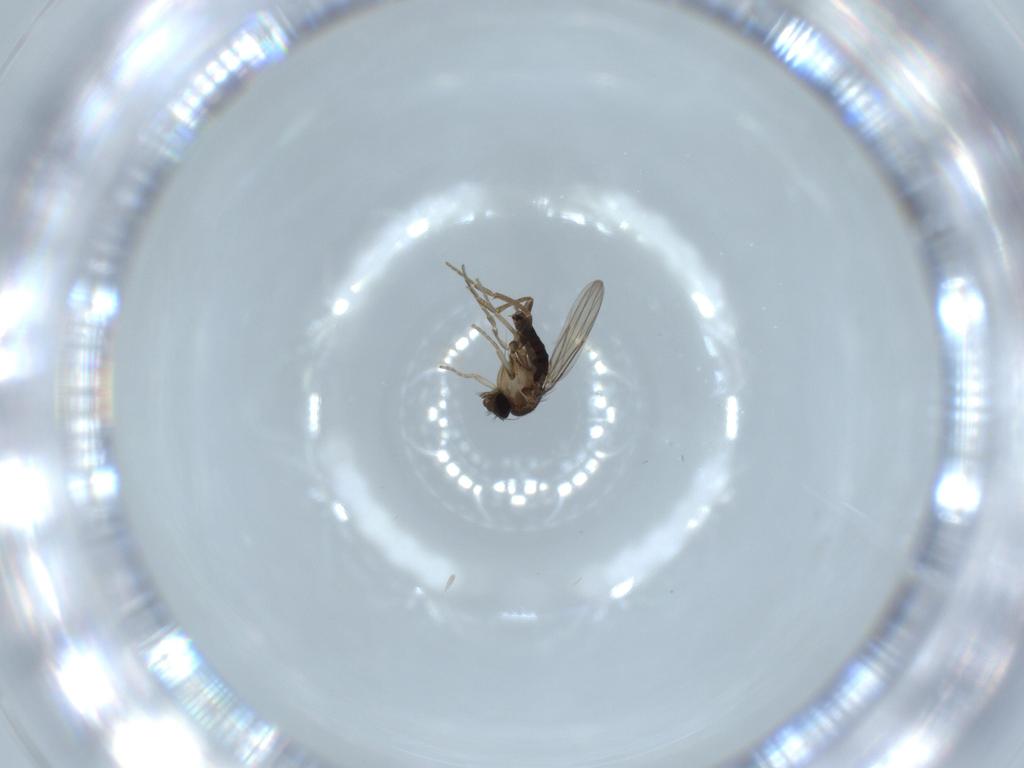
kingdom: Animalia
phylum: Arthropoda
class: Insecta
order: Diptera
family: Phoridae
